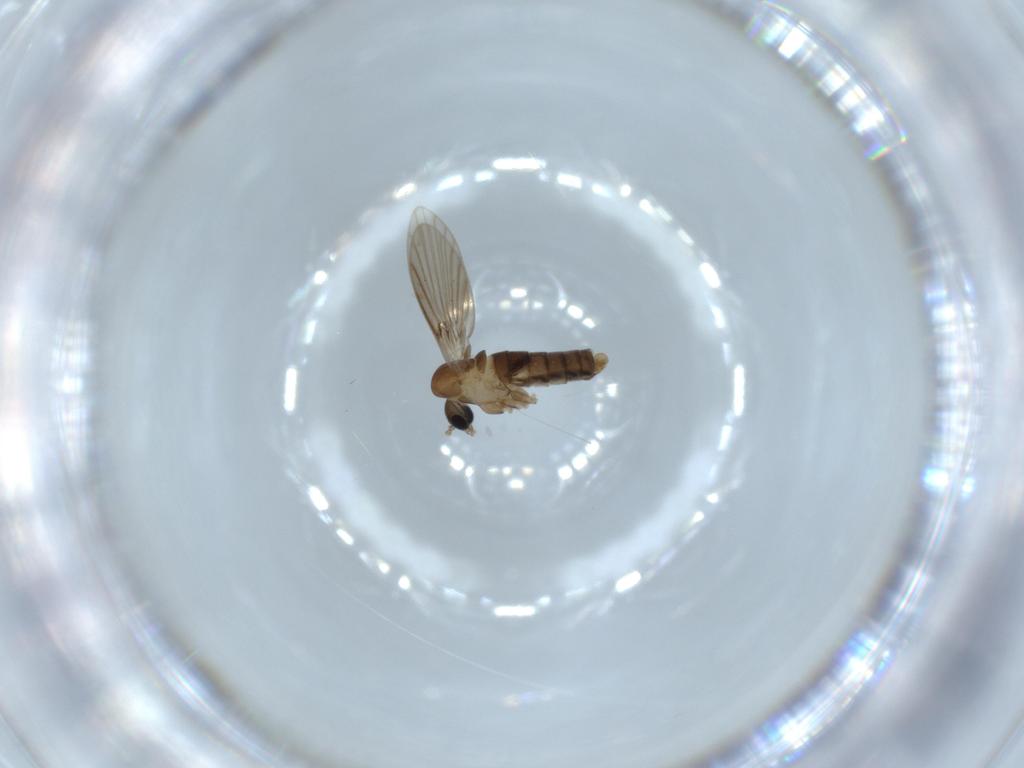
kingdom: Animalia
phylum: Arthropoda
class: Insecta
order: Diptera
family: Psychodidae
